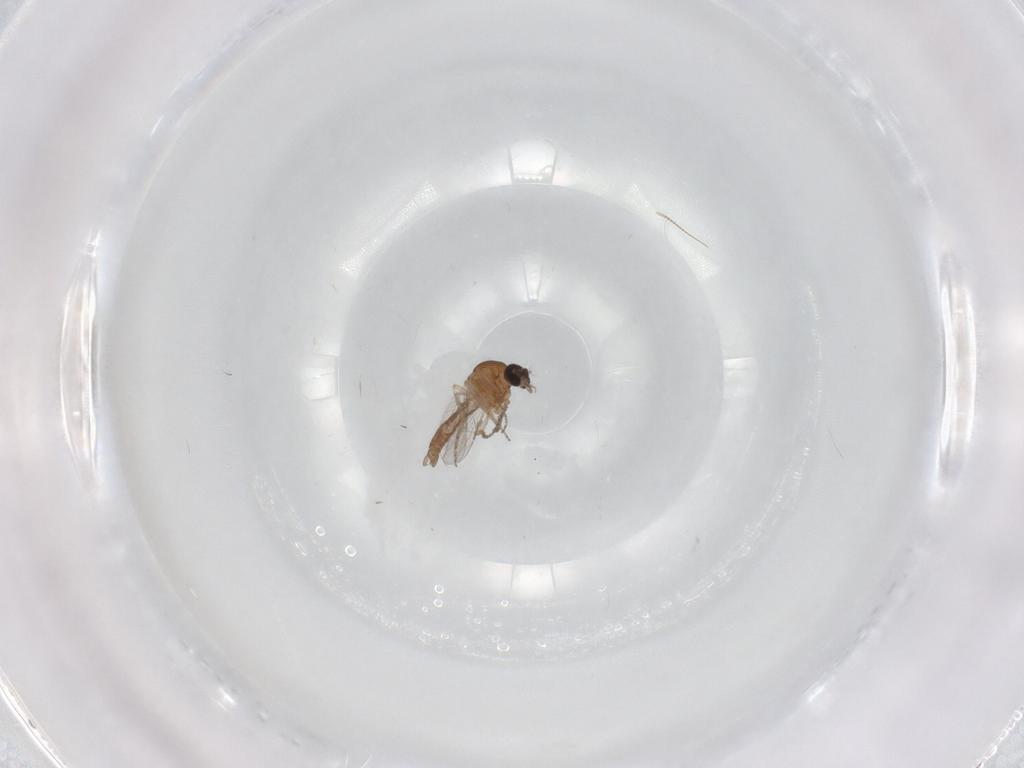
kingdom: Animalia
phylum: Arthropoda
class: Insecta
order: Diptera
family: Chironomidae
